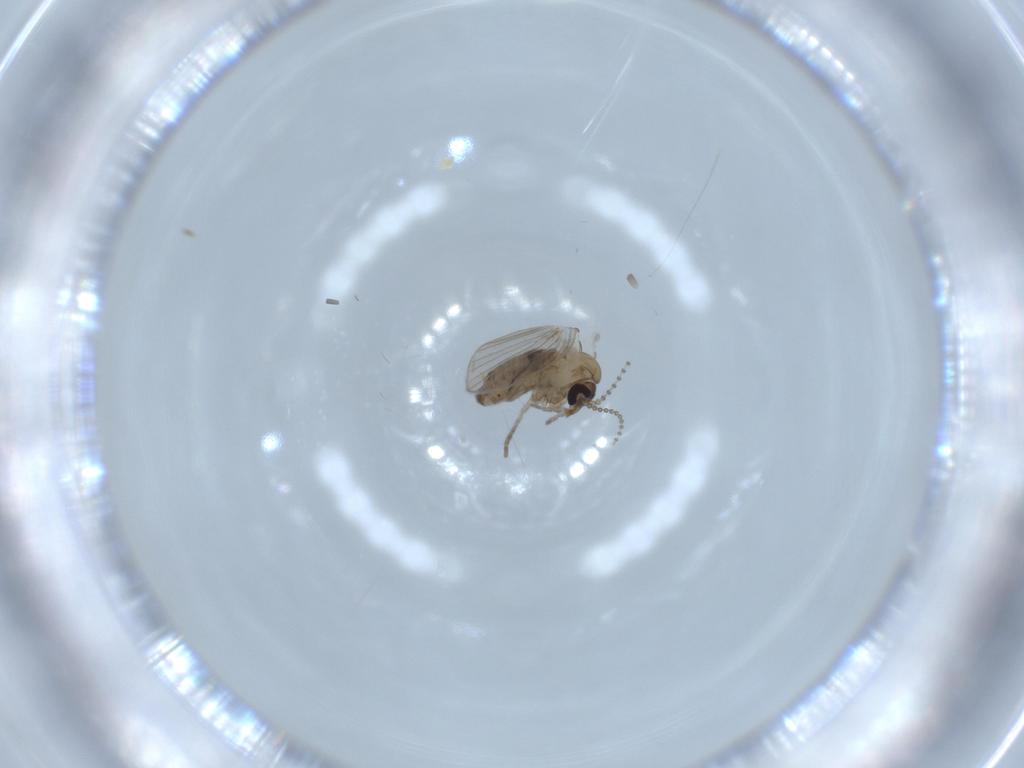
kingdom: Animalia
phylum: Arthropoda
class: Insecta
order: Diptera
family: Psychodidae
